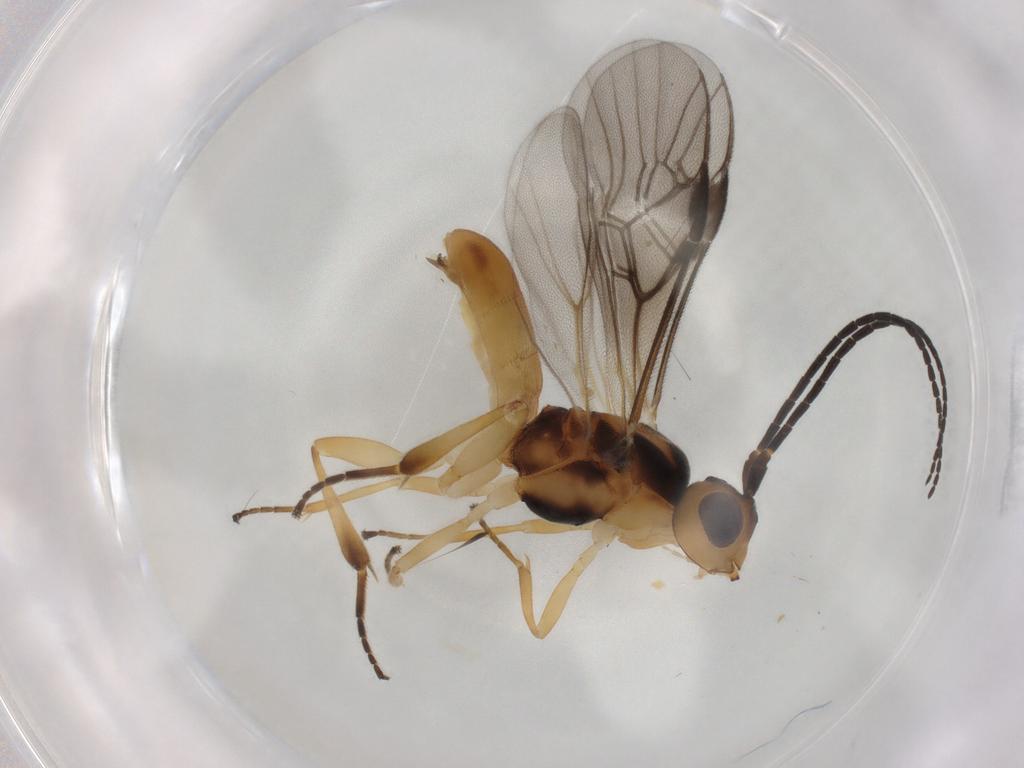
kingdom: Animalia
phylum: Arthropoda
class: Insecta
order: Hymenoptera
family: Braconidae
